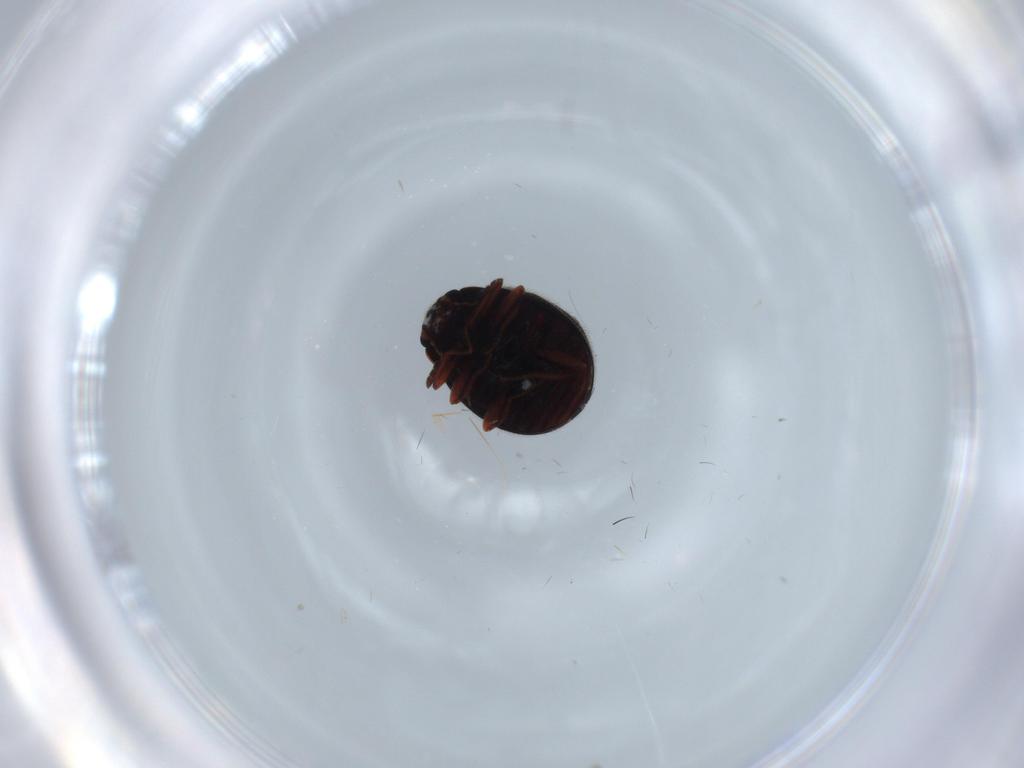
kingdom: Animalia
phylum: Arthropoda
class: Insecta
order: Coleoptera
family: Sphindidae
